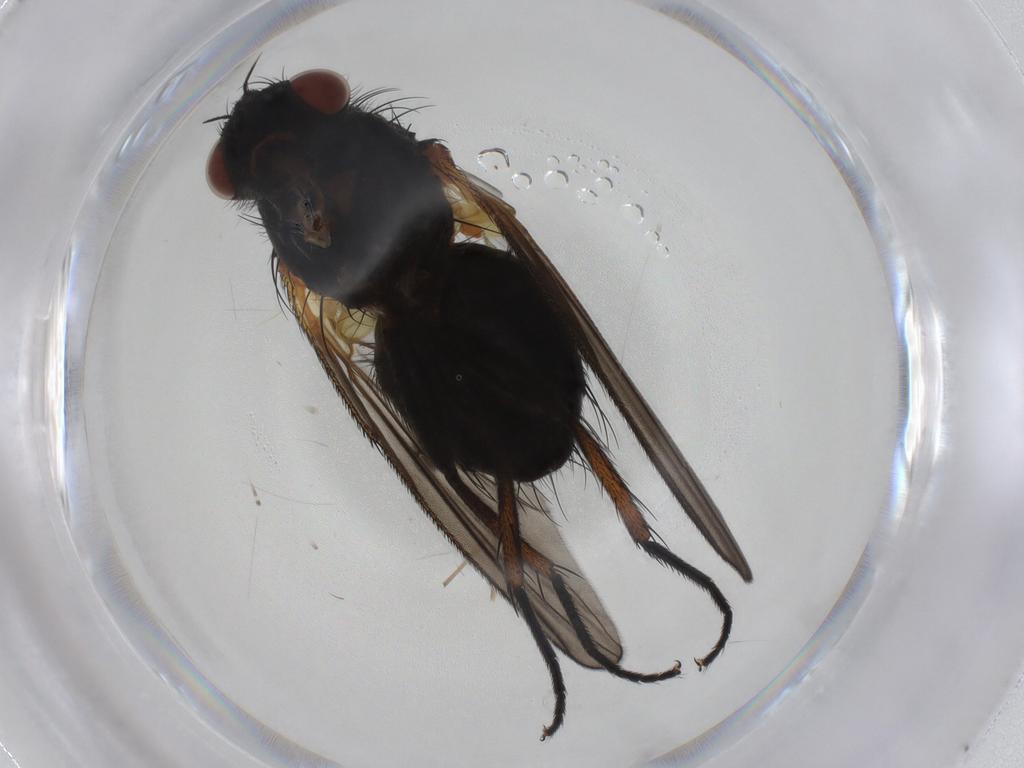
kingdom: Animalia
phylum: Arthropoda
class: Insecta
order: Diptera
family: Tachinidae
